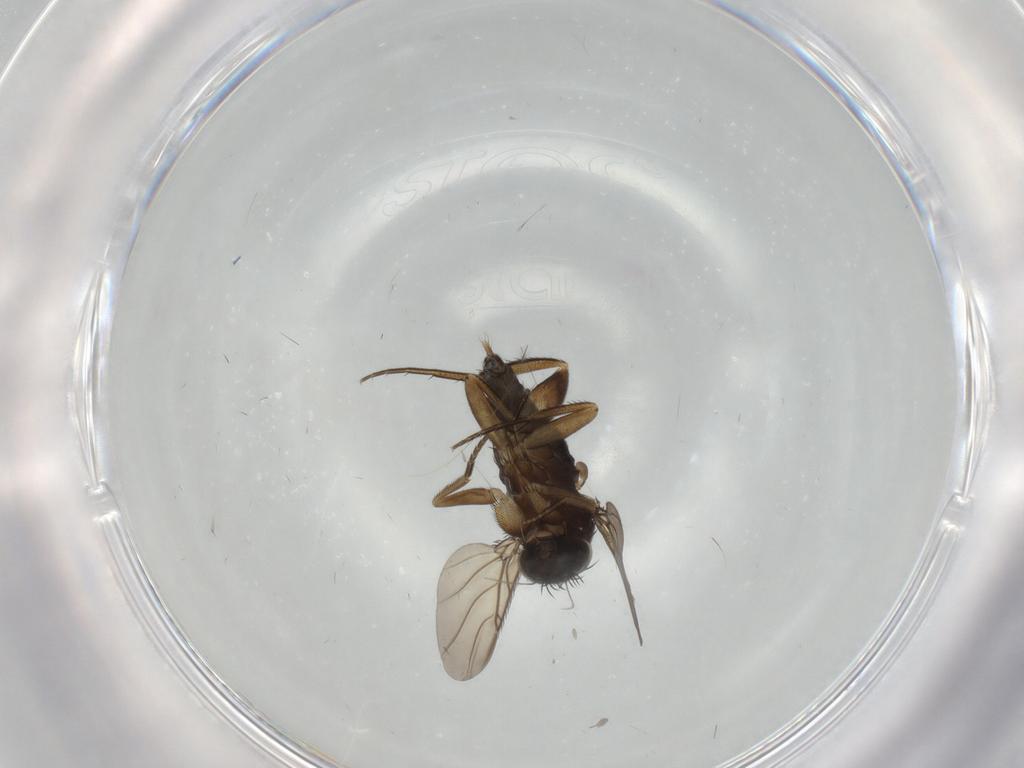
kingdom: Animalia
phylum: Arthropoda
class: Insecta
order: Diptera
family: Phoridae
